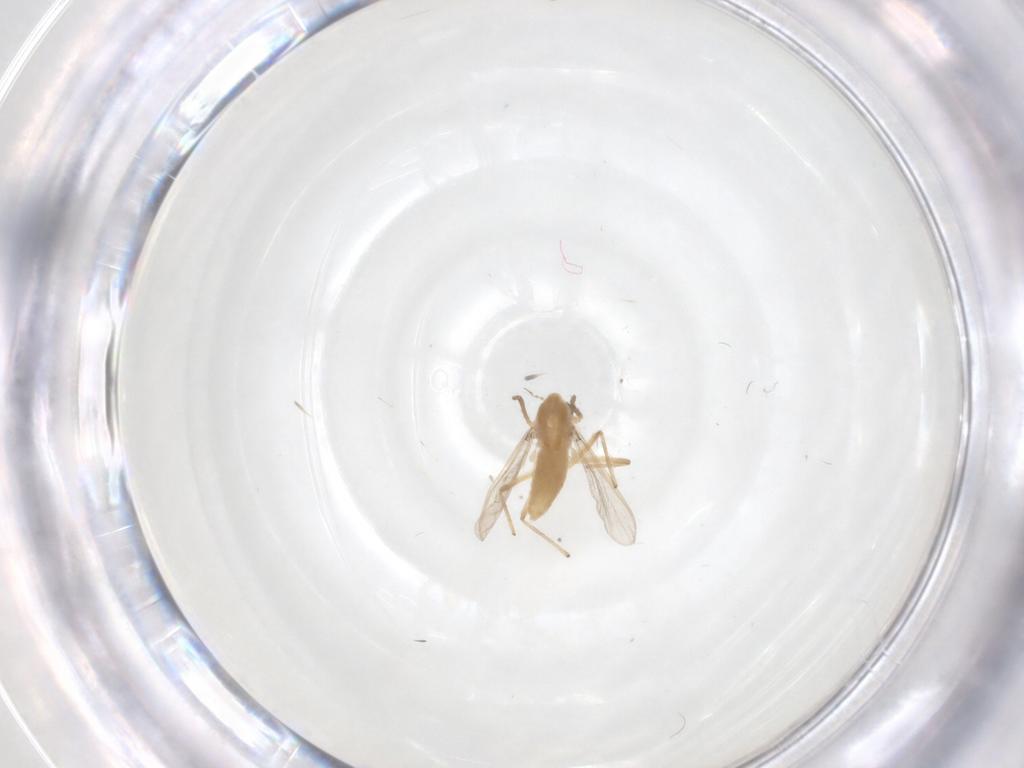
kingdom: Animalia
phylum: Arthropoda
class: Insecta
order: Diptera
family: Chironomidae
